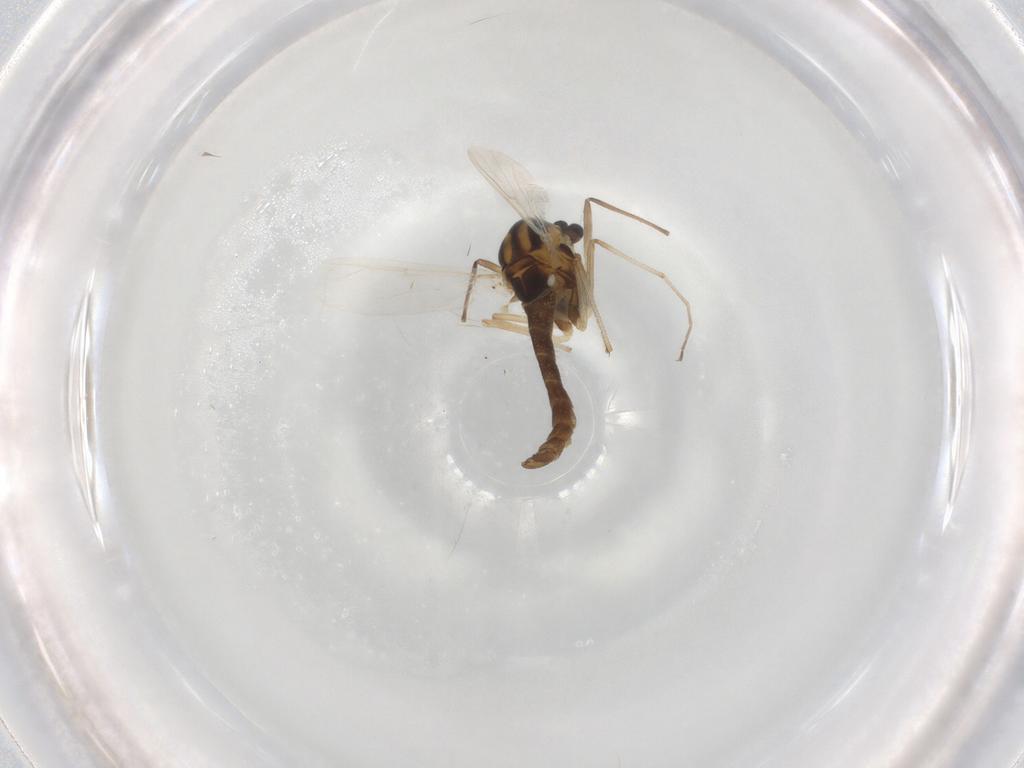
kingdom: Animalia
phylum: Arthropoda
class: Insecta
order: Diptera
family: Chironomidae
